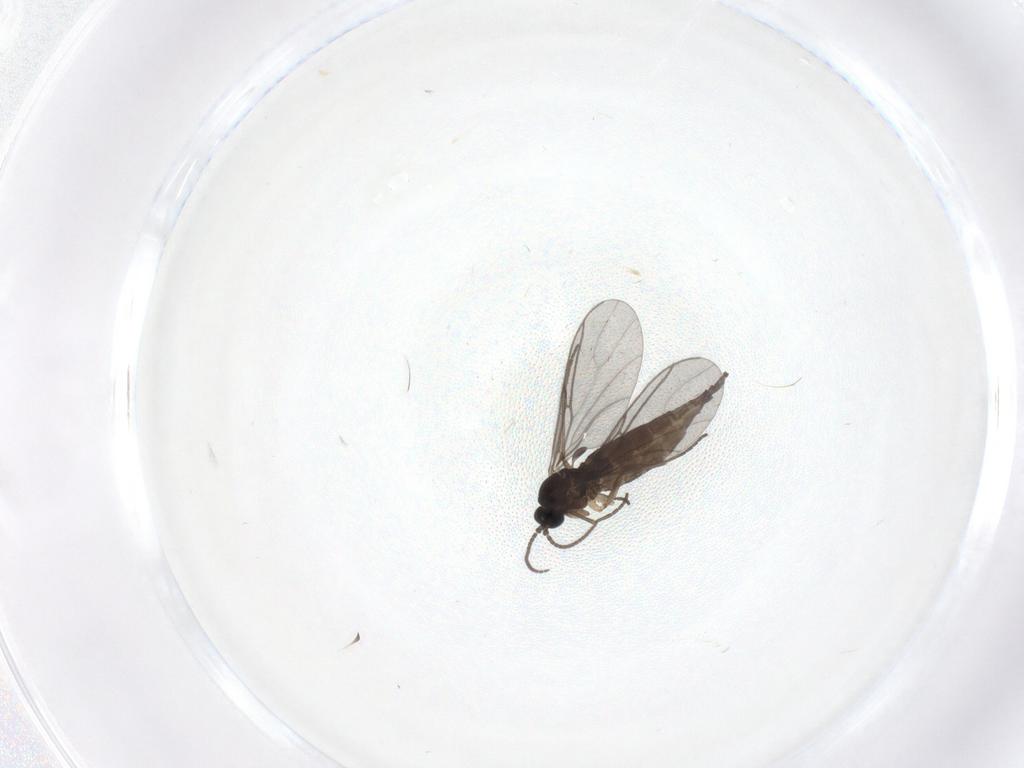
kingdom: Animalia
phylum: Arthropoda
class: Insecta
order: Diptera
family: Bibionidae
